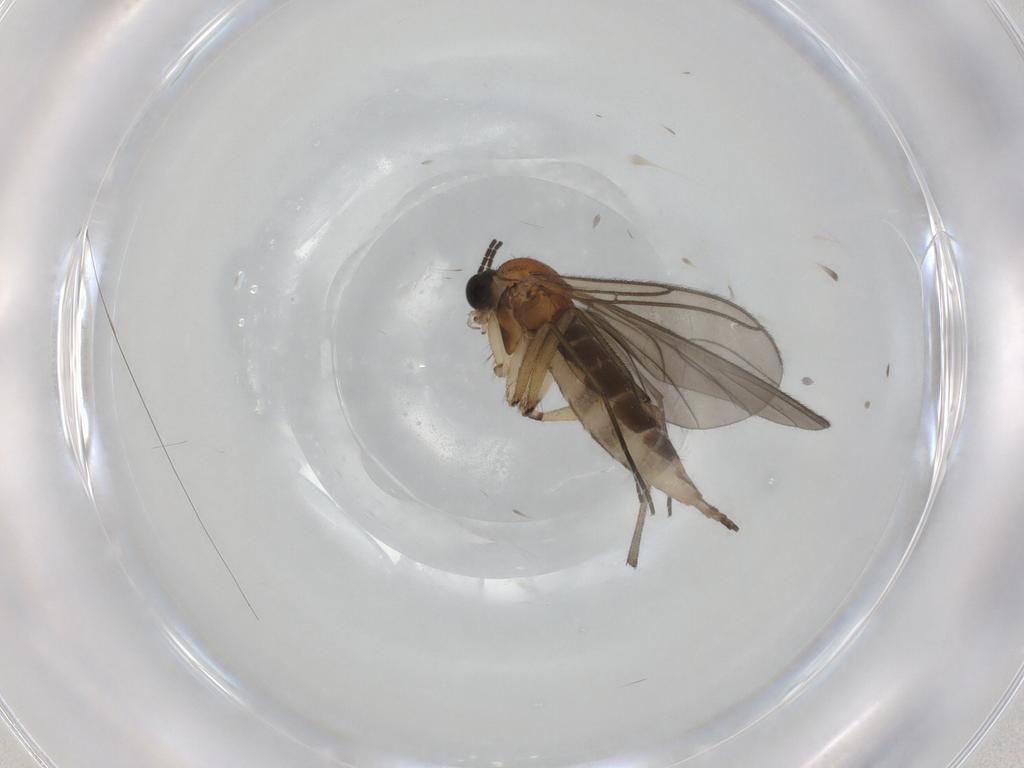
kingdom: Animalia
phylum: Arthropoda
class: Insecta
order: Diptera
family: Sciaridae
